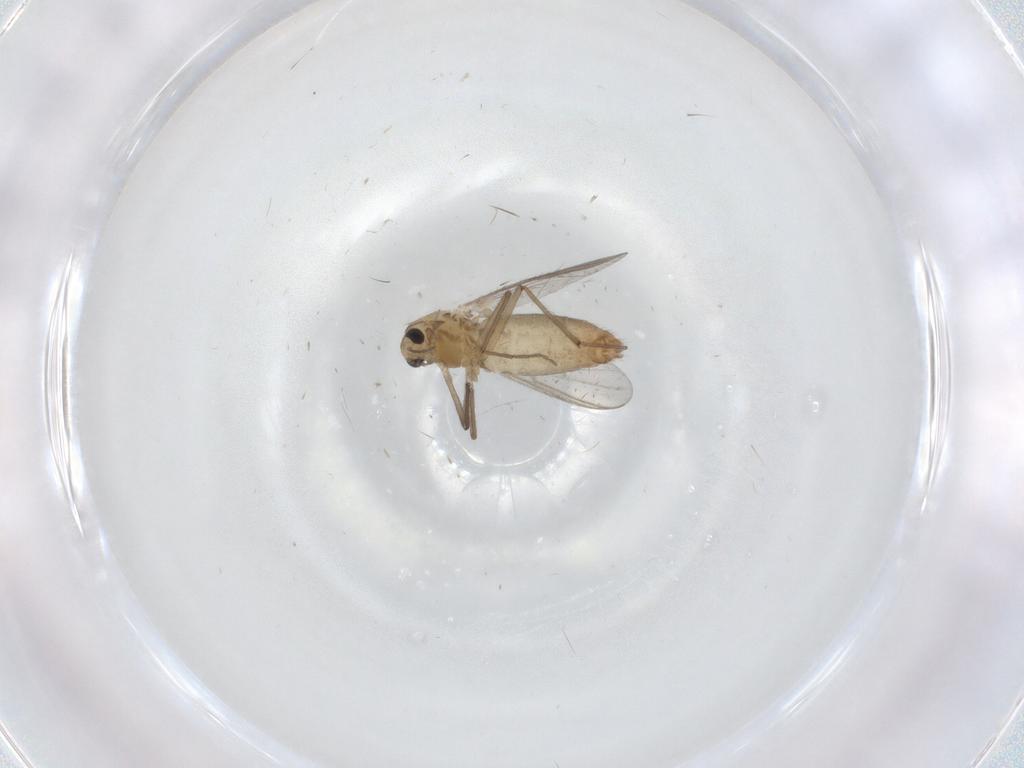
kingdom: Animalia
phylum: Arthropoda
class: Insecta
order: Diptera
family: Chironomidae
